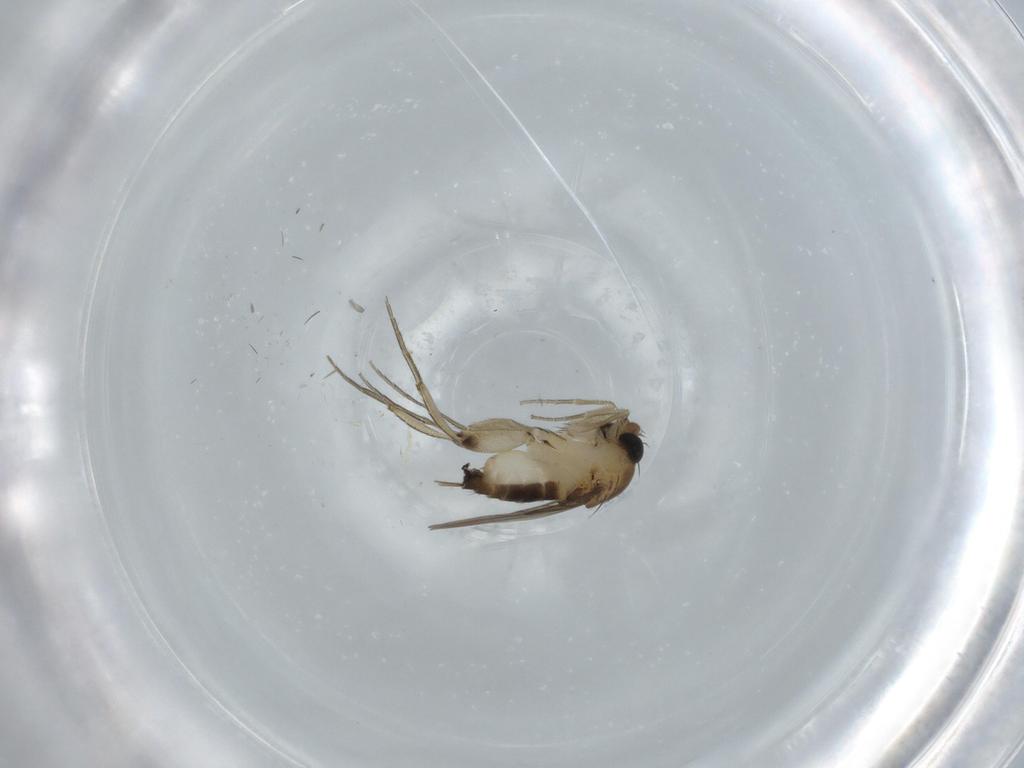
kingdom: Animalia
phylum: Arthropoda
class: Insecta
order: Diptera
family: Phoridae
